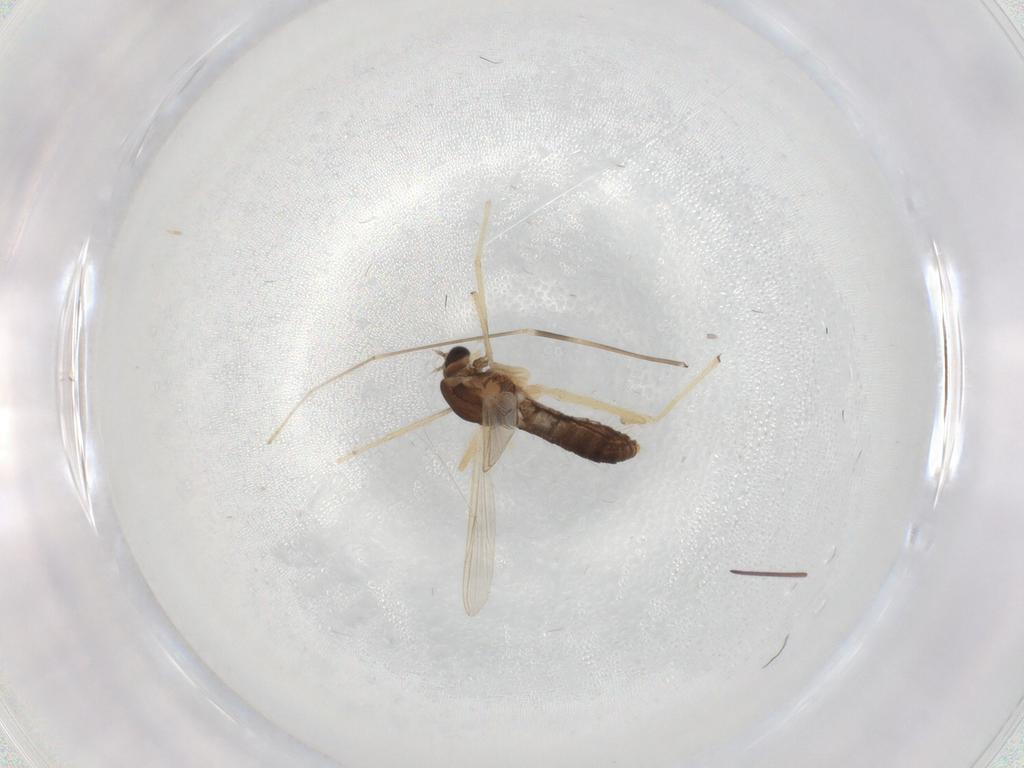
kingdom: Animalia
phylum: Arthropoda
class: Insecta
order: Diptera
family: Chironomidae
